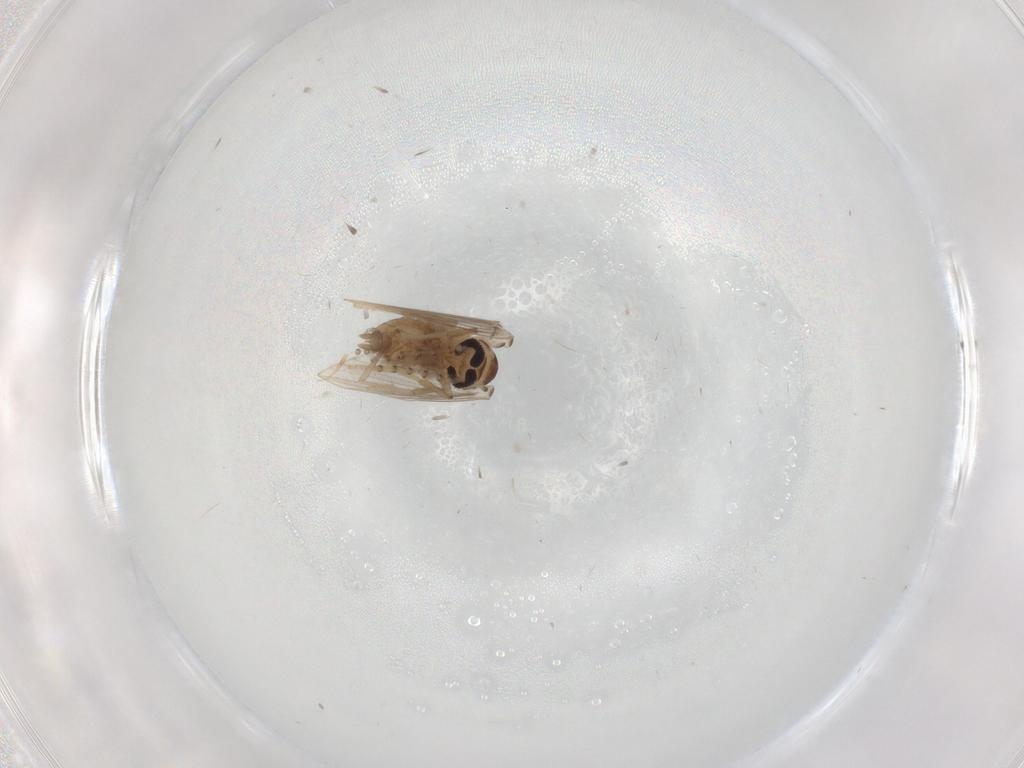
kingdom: Animalia
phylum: Arthropoda
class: Insecta
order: Diptera
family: Psychodidae
